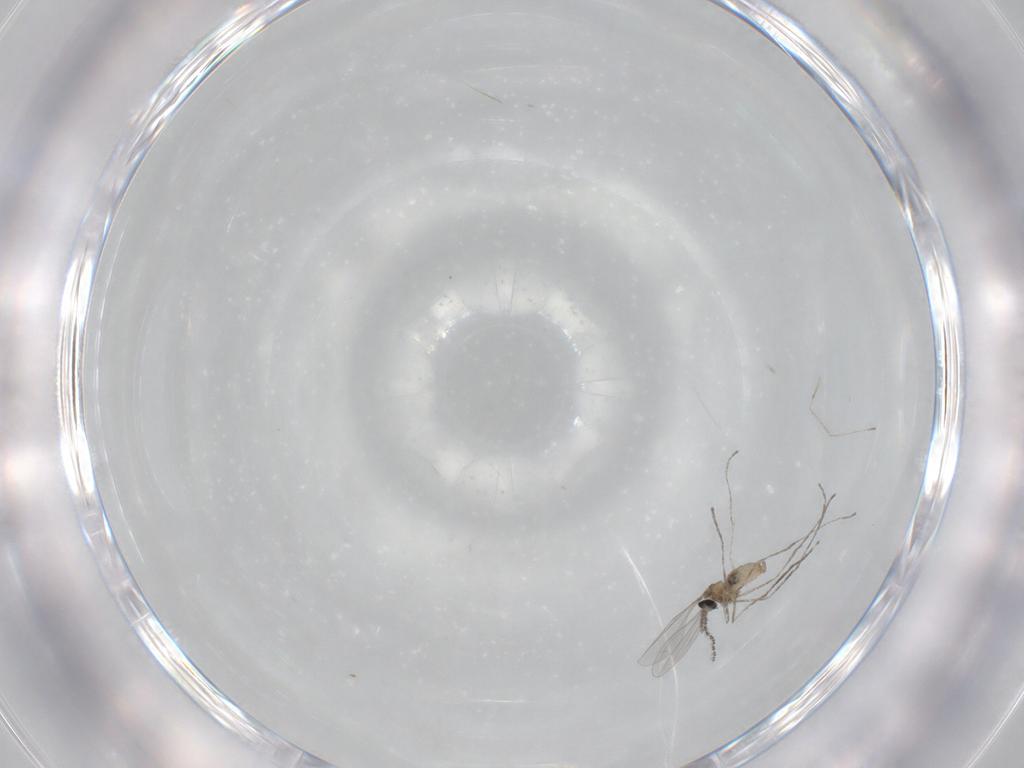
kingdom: Animalia
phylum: Arthropoda
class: Insecta
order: Diptera
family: Cecidomyiidae
